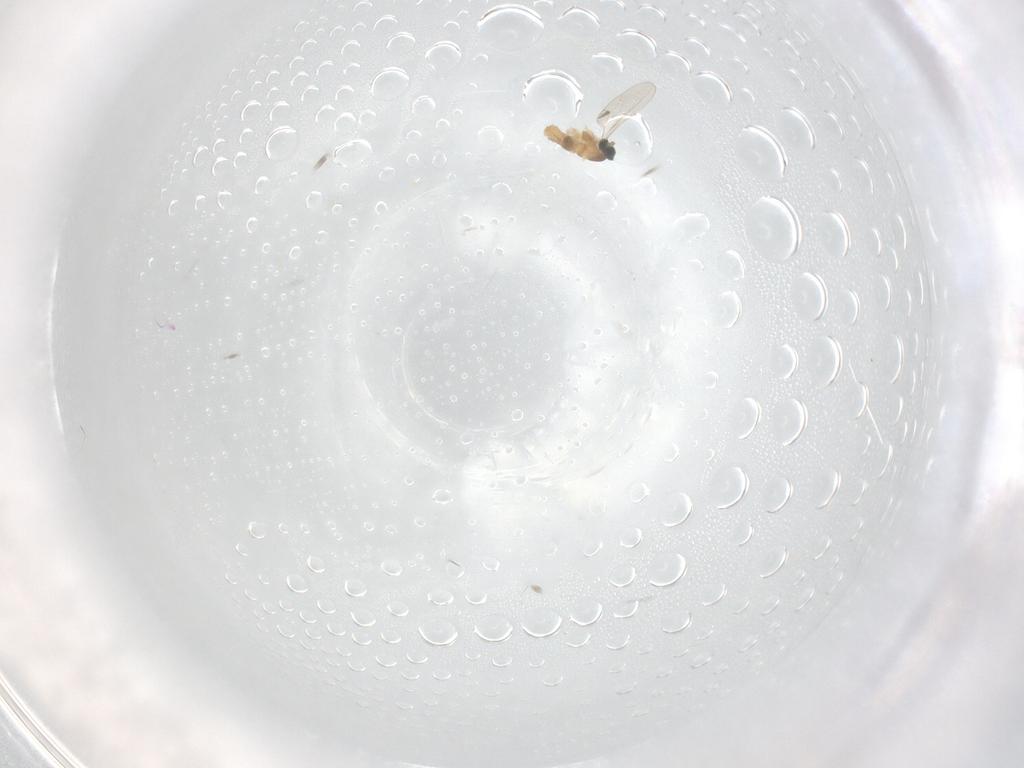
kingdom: Animalia
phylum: Arthropoda
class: Insecta
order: Diptera
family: Cecidomyiidae
